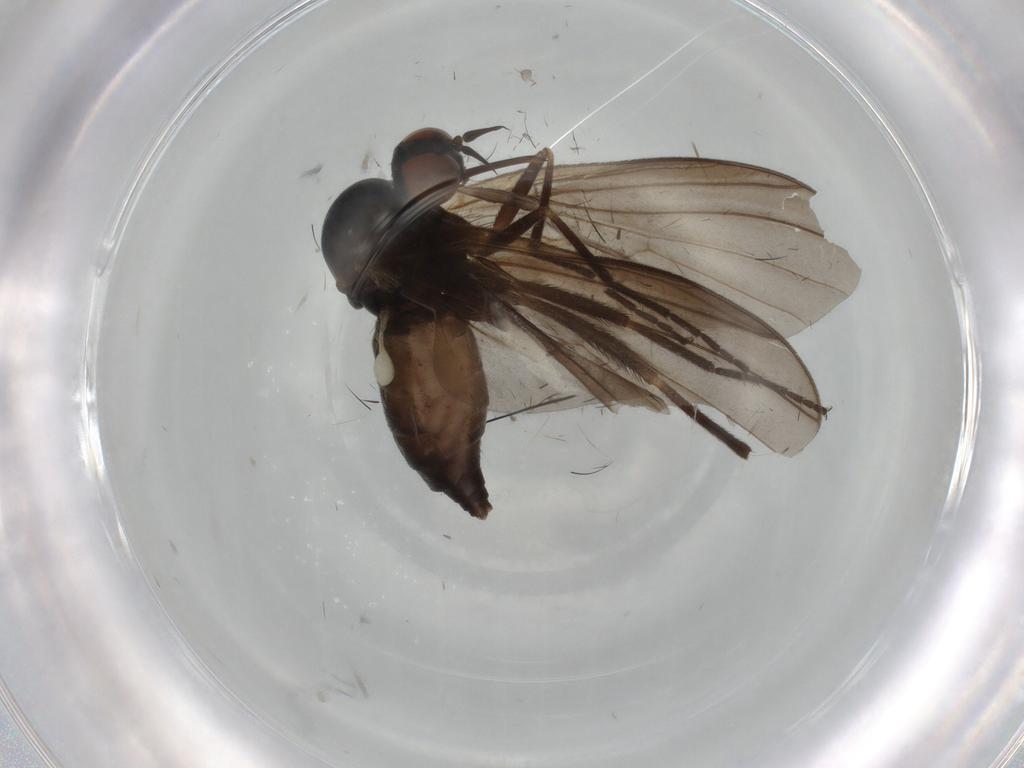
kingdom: Animalia
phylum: Arthropoda
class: Insecta
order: Diptera
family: Empididae
